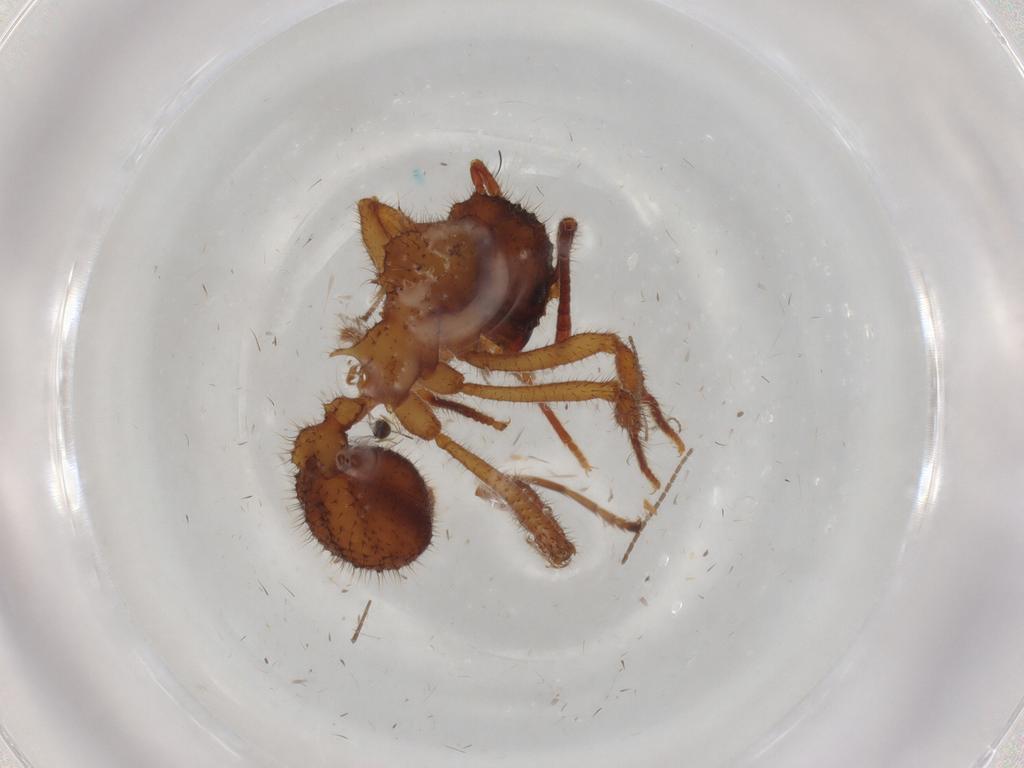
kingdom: Animalia
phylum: Arthropoda
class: Insecta
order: Hymenoptera
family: Braconidae
